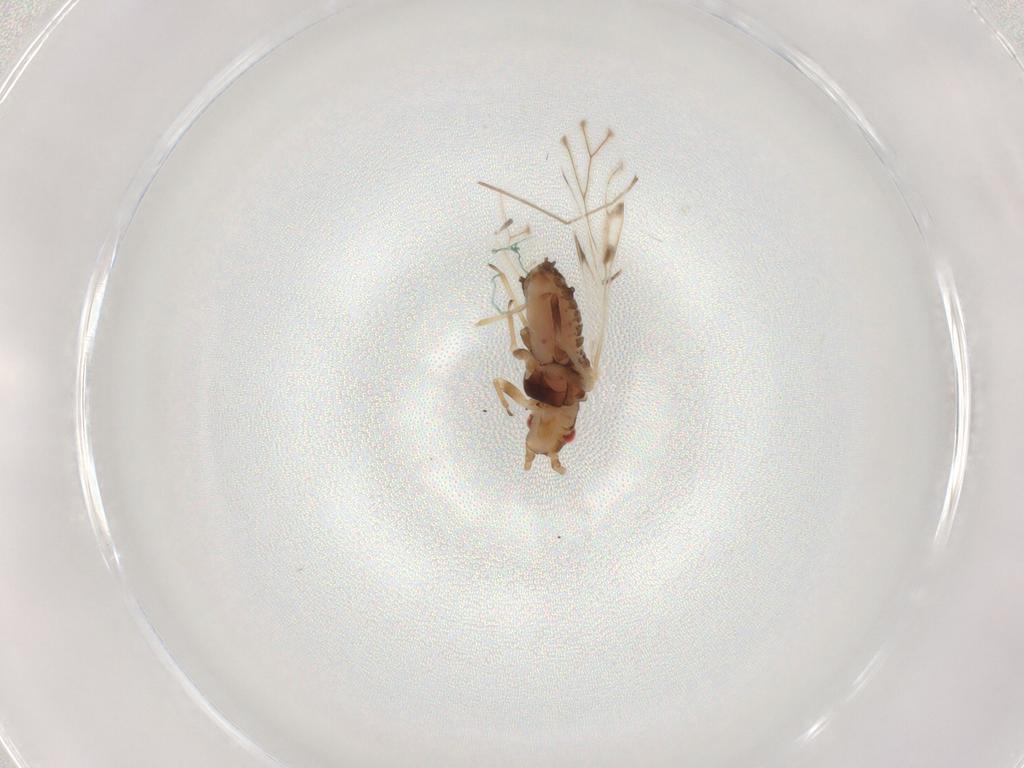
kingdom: Animalia
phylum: Arthropoda
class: Insecta
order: Hemiptera
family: Aphididae
